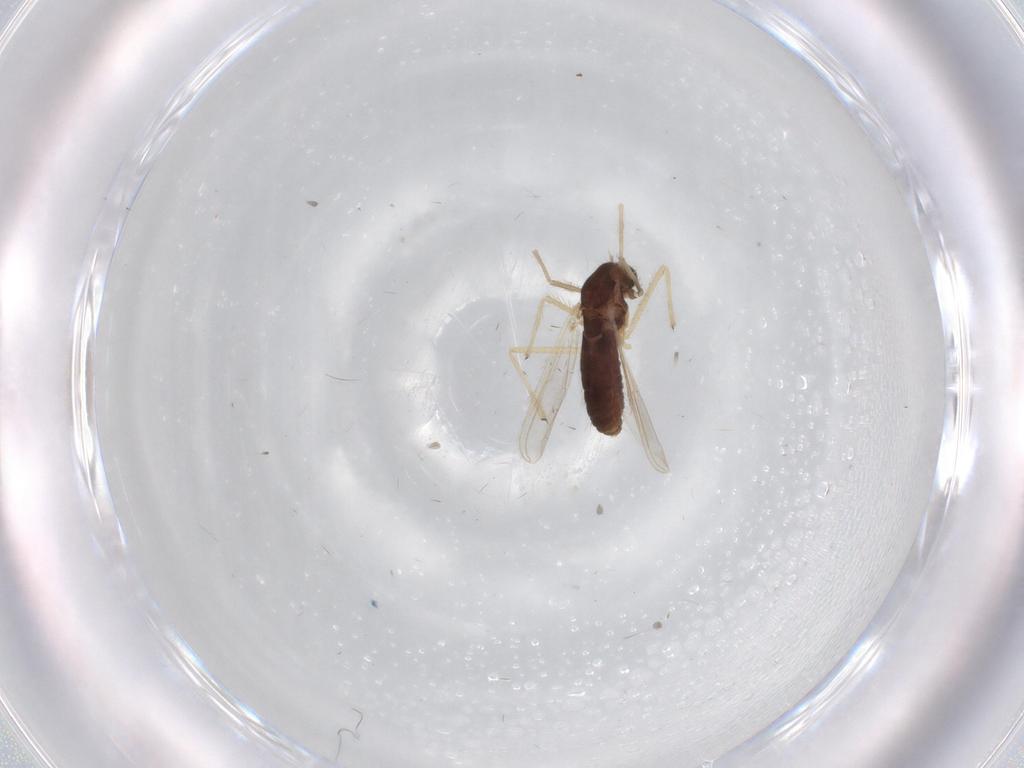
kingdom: Animalia
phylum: Arthropoda
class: Insecta
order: Diptera
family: Chironomidae
